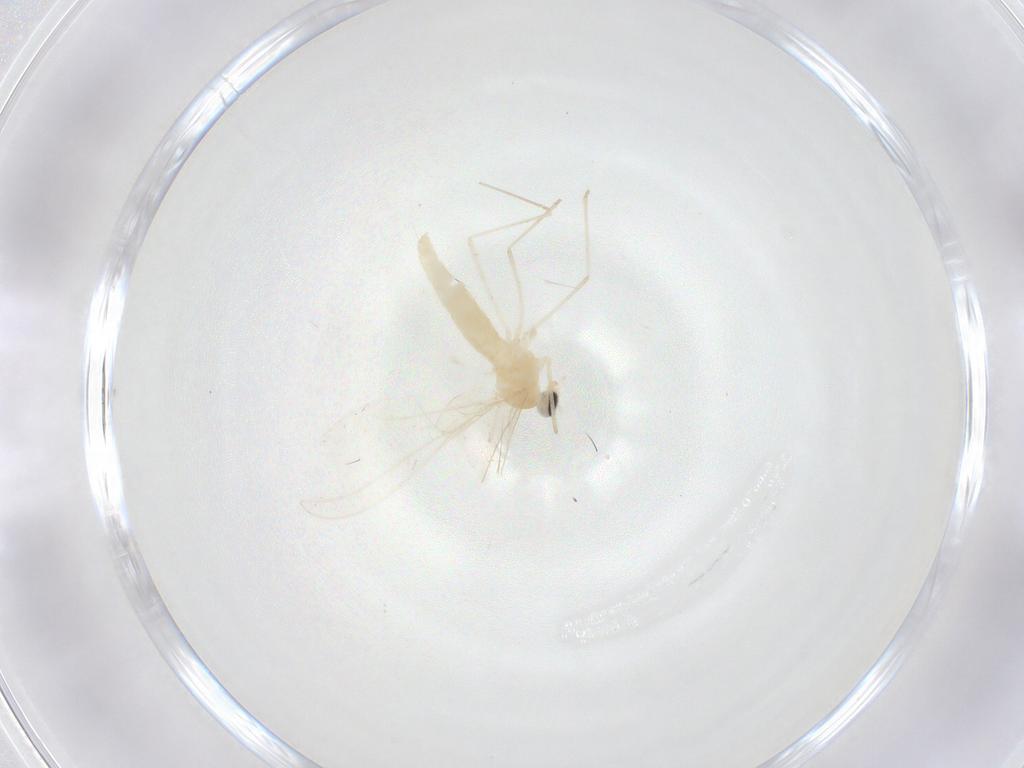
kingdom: Animalia
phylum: Arthropoda
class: Insecta
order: Diptera
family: Cecidomyiidae
